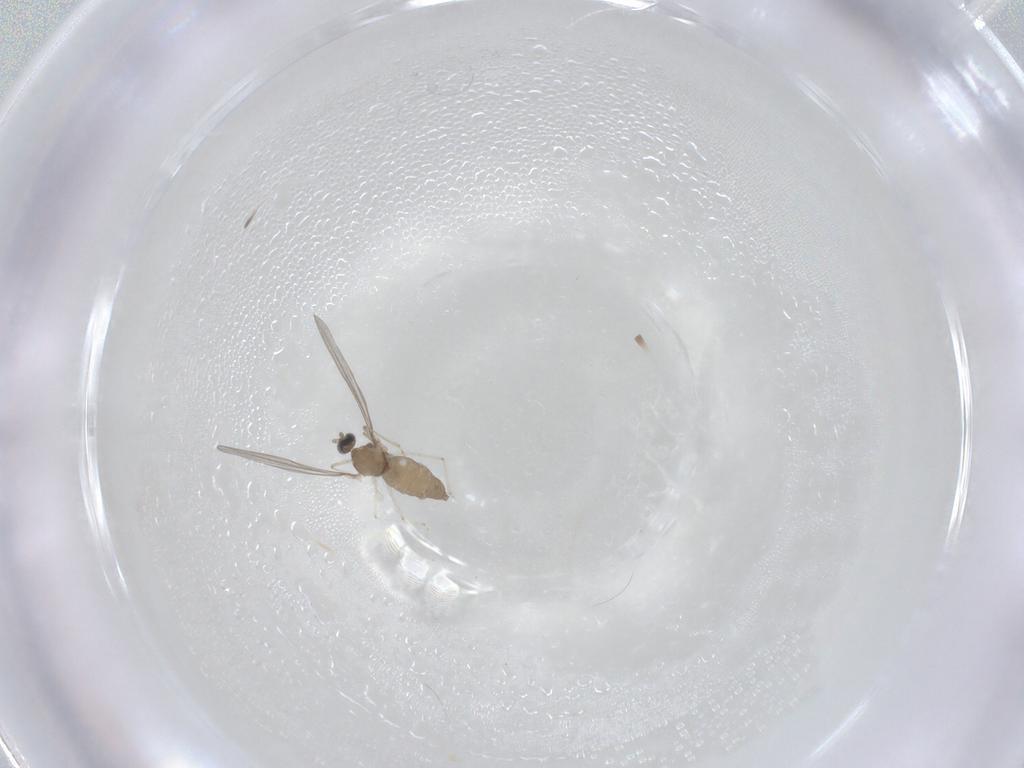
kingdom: Animalia
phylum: Arthropoda
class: Insecta
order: Diptera
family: Cecidomyiidae
